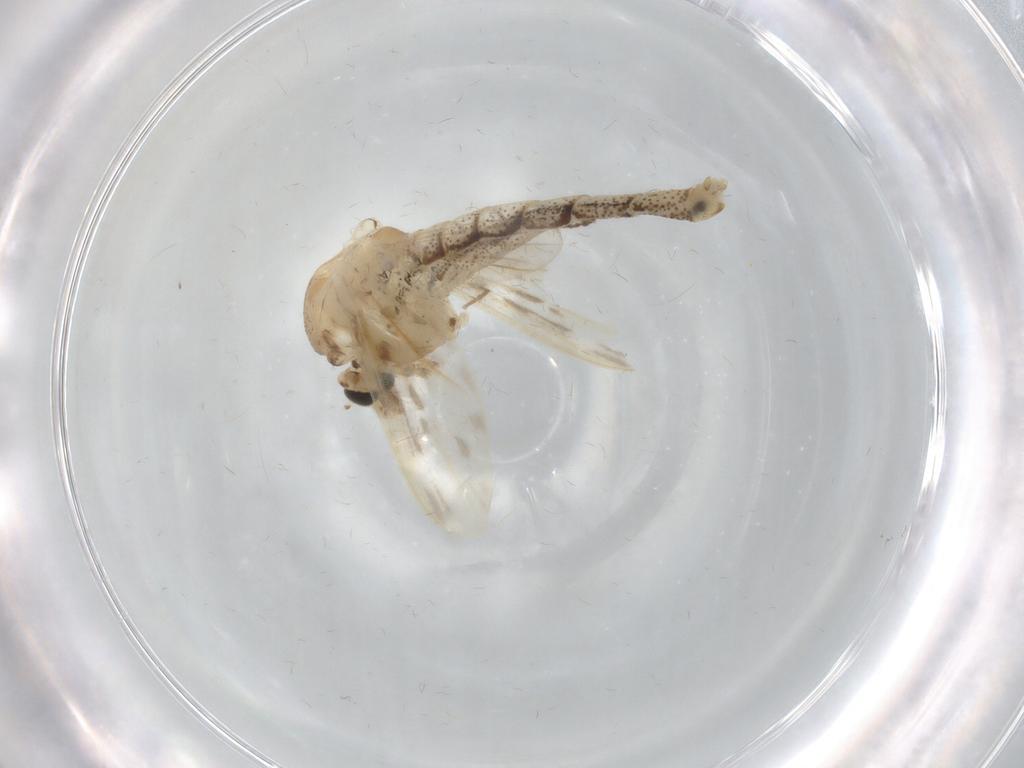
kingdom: Animalia
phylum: Arthropoda
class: Insecta
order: Diptera
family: Chaoboridae
